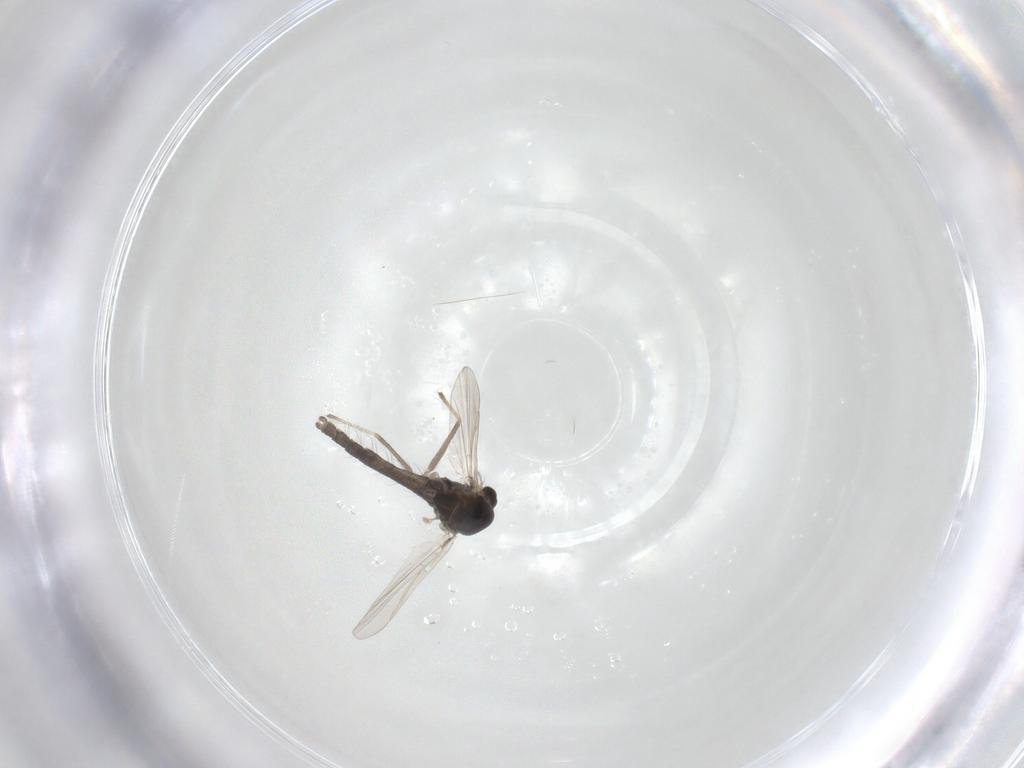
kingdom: Animalia
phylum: Arthropoda
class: Insecta
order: Diptera
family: Chironomidae
